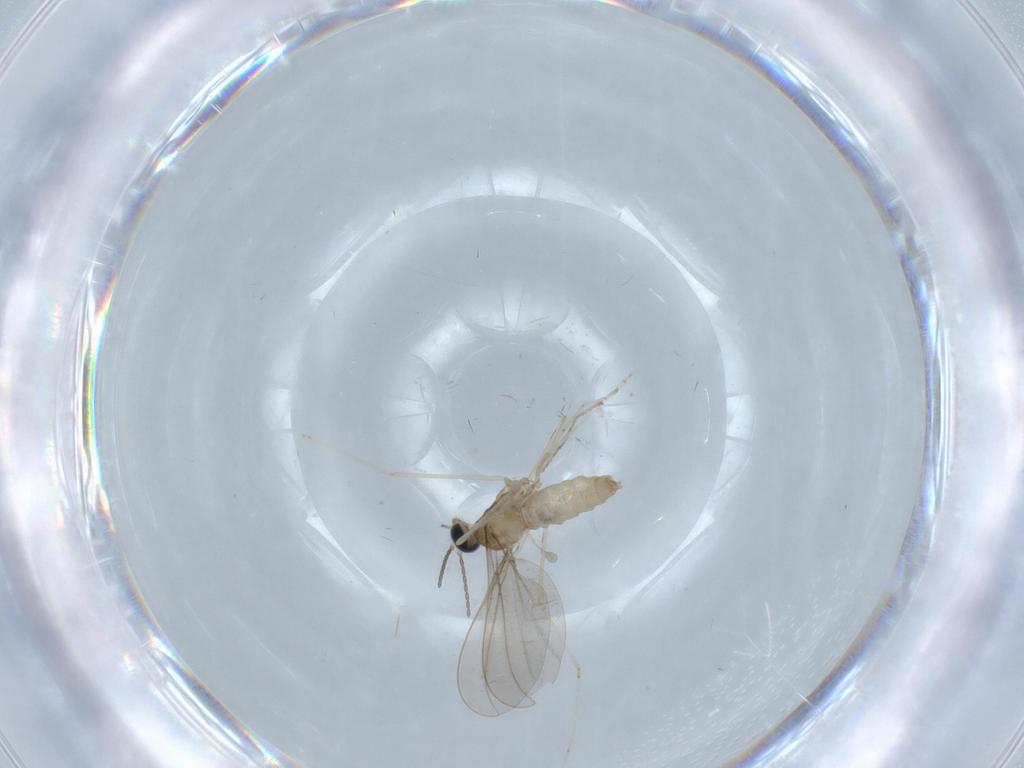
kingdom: Animalia
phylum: Arthropoda
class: Insecta
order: Diptera
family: Cecidomyiidae
